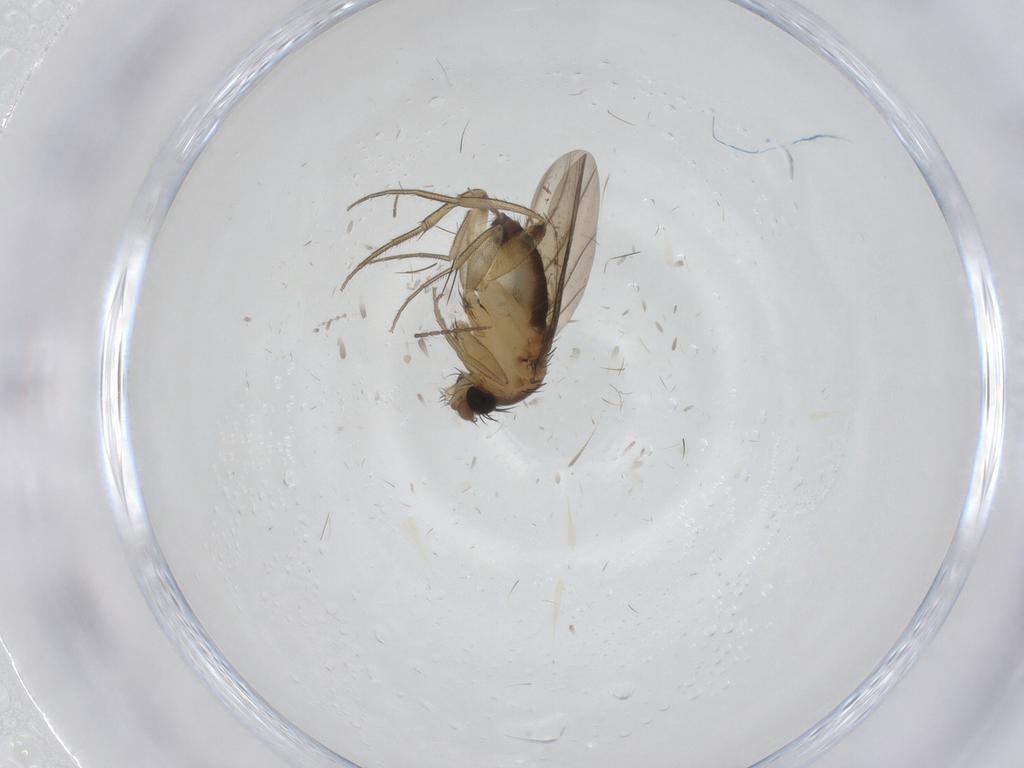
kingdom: Animalia
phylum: Arthropoda
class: Insecta
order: Diptera
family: Phoridae
